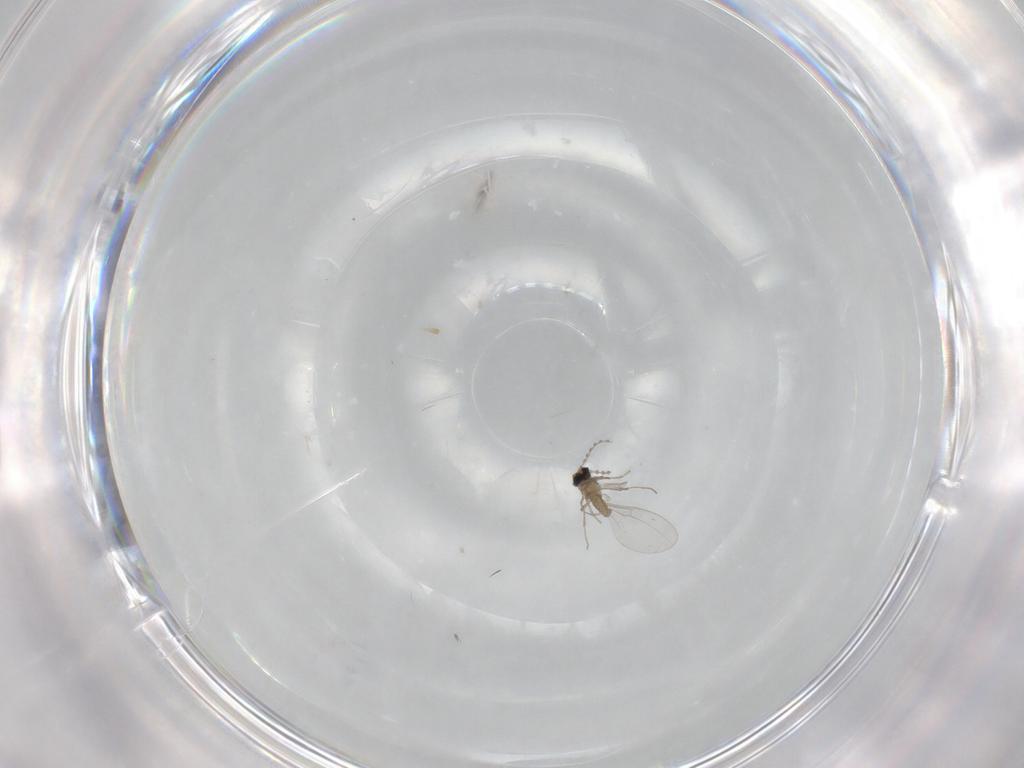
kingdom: Animalia
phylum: Arthropoda
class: Insecta
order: Diptera
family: Cecidomyiidae
